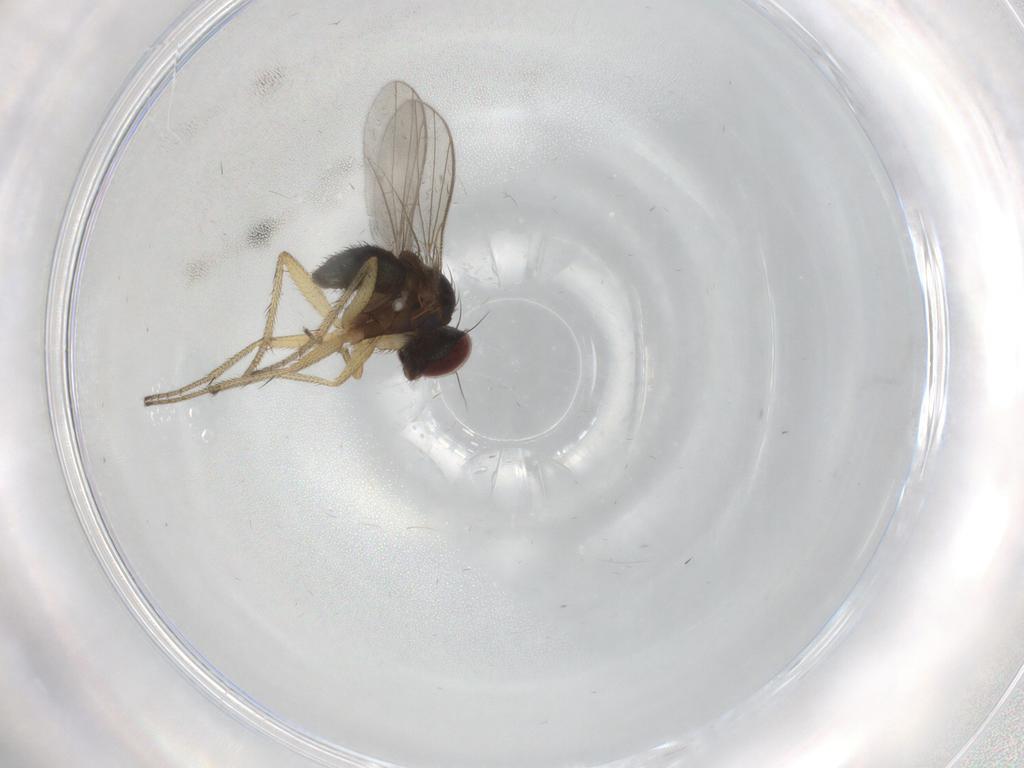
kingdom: Animalia
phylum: Arthropoda
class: Insecta
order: Diptera
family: Dolichopodidae
